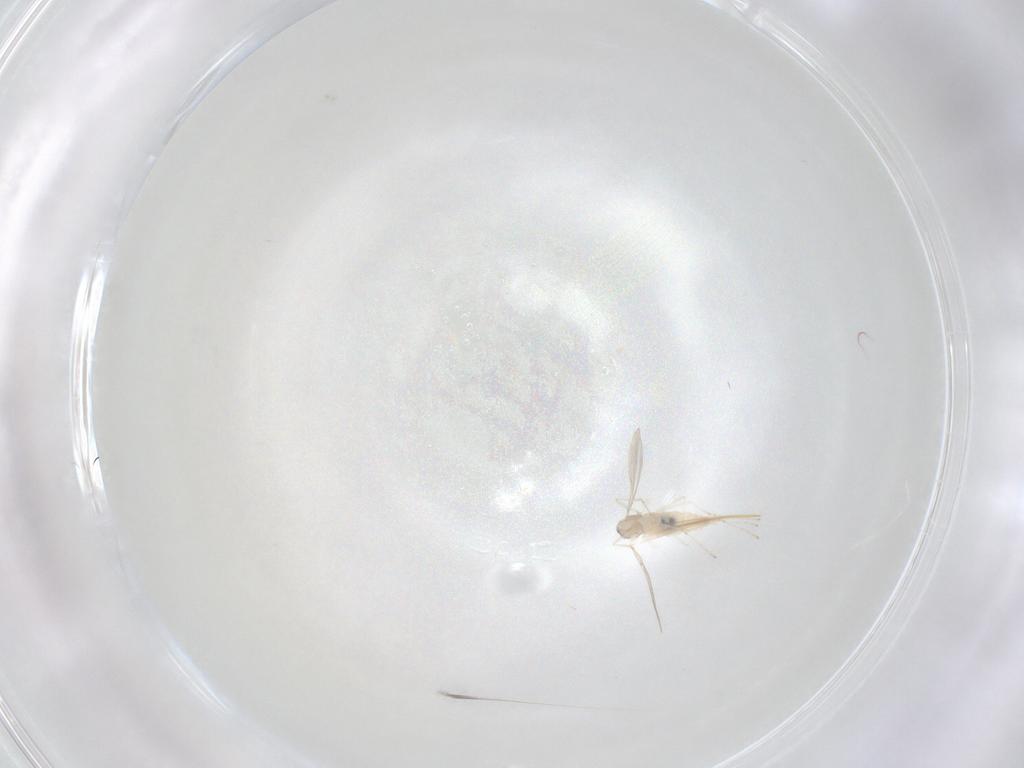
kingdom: Animalia
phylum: Arthropoda
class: Insecta
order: Diptera
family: Cecidomyiidae
